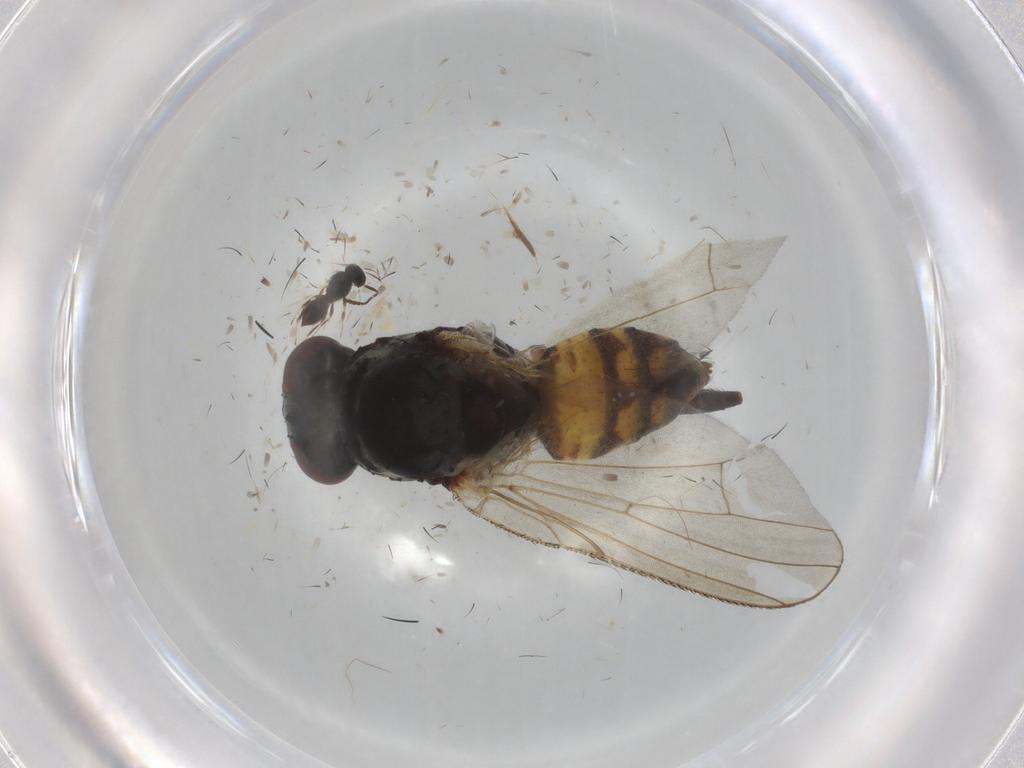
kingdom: Animalia
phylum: Arthropoda
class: Insecta
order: Diptera
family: Anthomyiidae
